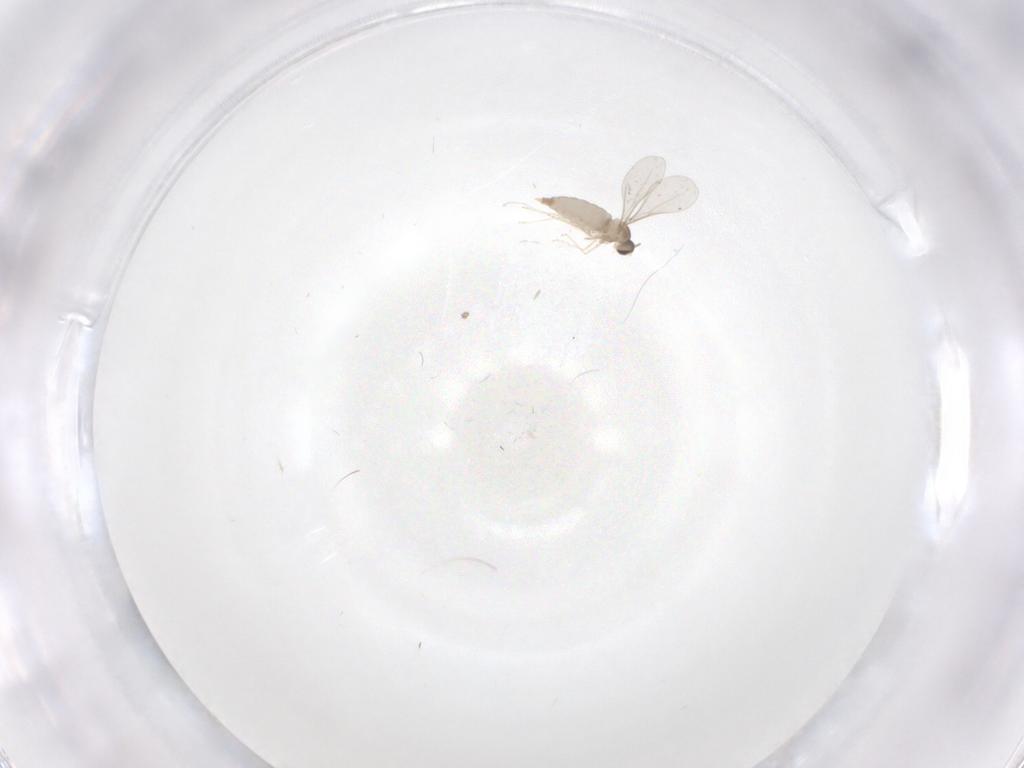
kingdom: Animalia
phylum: Arthropoda
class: Insecta
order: Diptera
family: Cecidomyiidae
